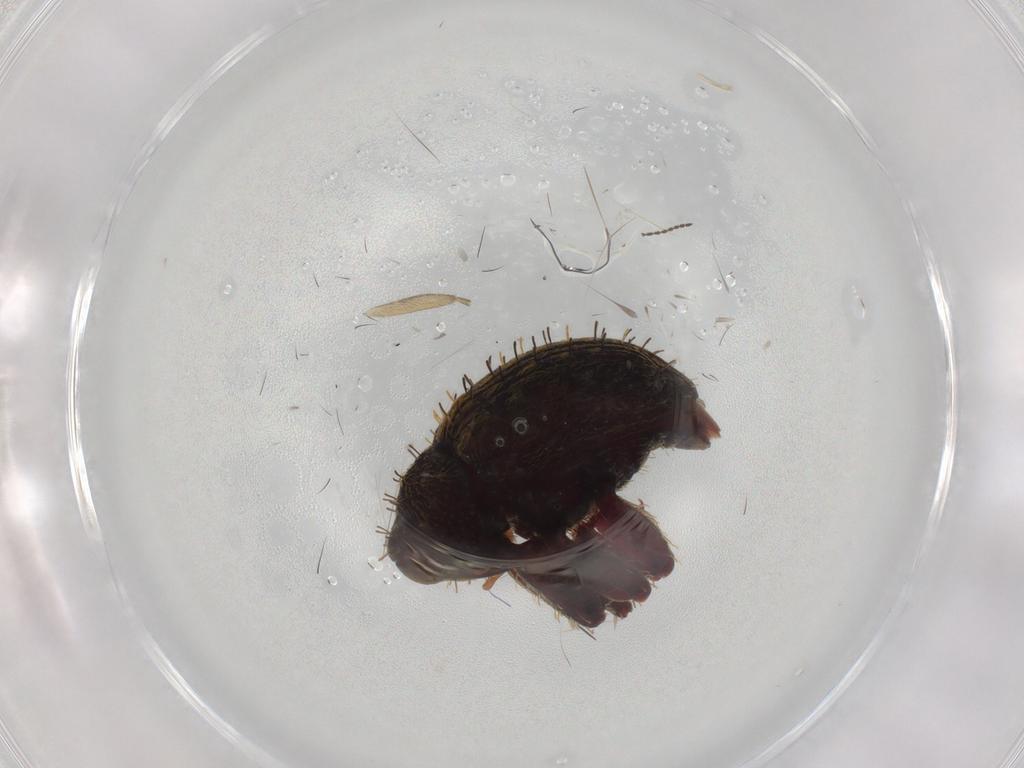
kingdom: Animalia
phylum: Arthropoda
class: Insecta
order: Coleoptera
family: Curculionidae
